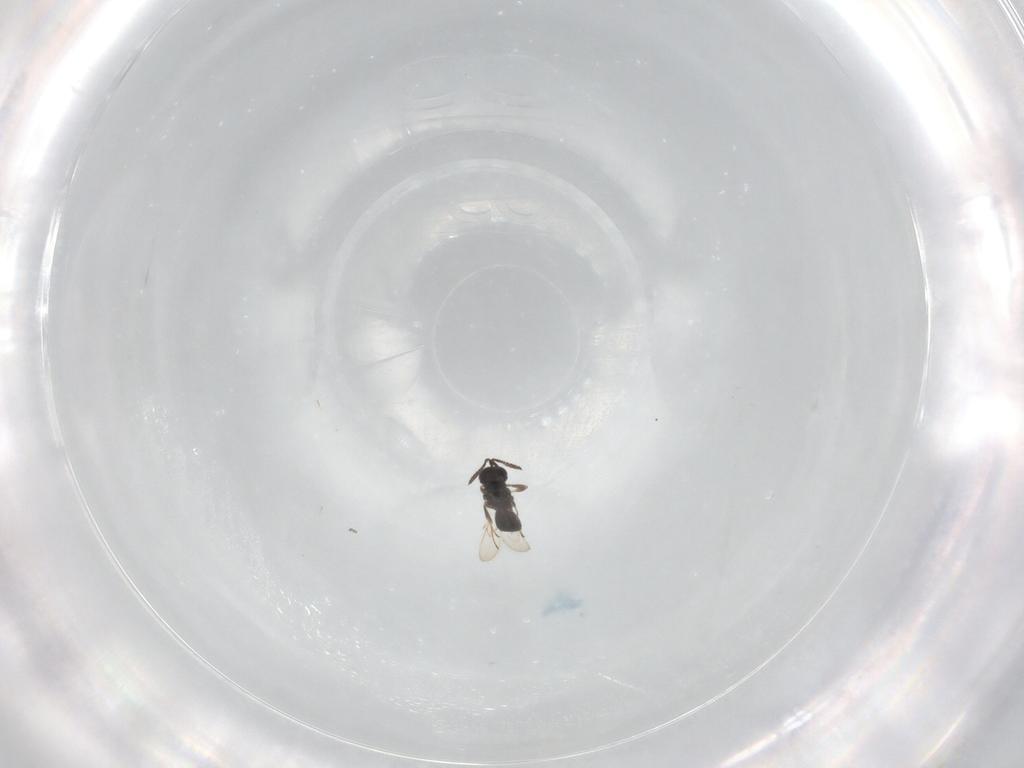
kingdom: Animalia
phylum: Arthropoda
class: Insecta
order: Hymenoptera
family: Scelionidae
